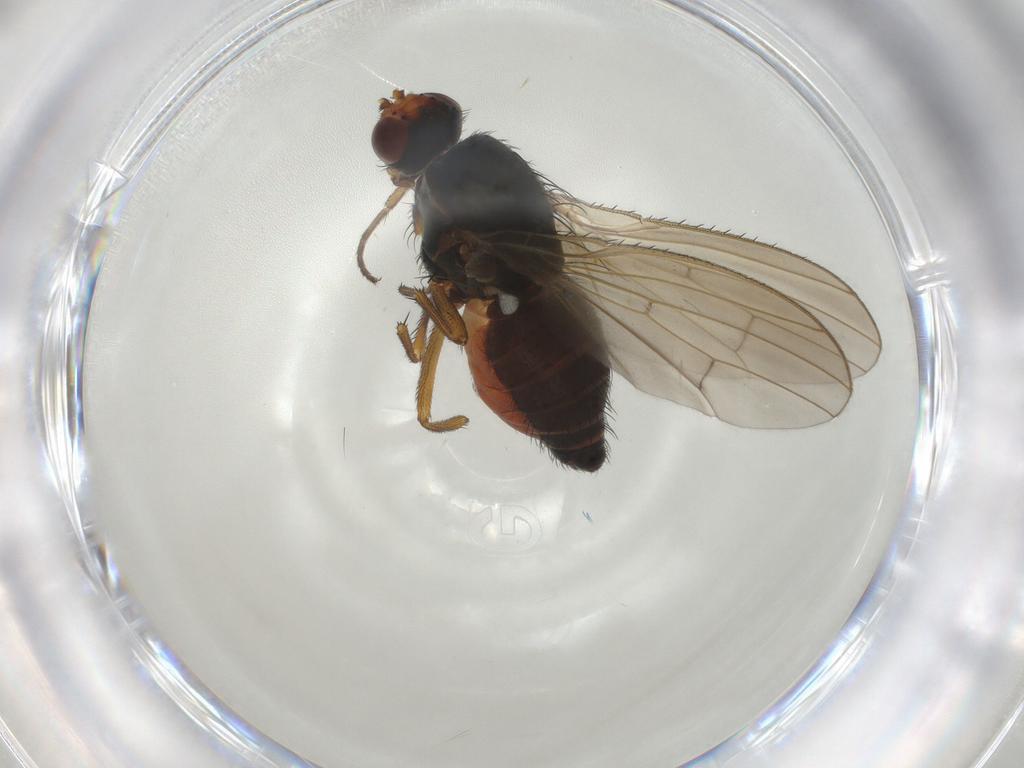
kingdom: Animalia
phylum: Arthropoda
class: Insecta
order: Diptera
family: Heleomyzidae
